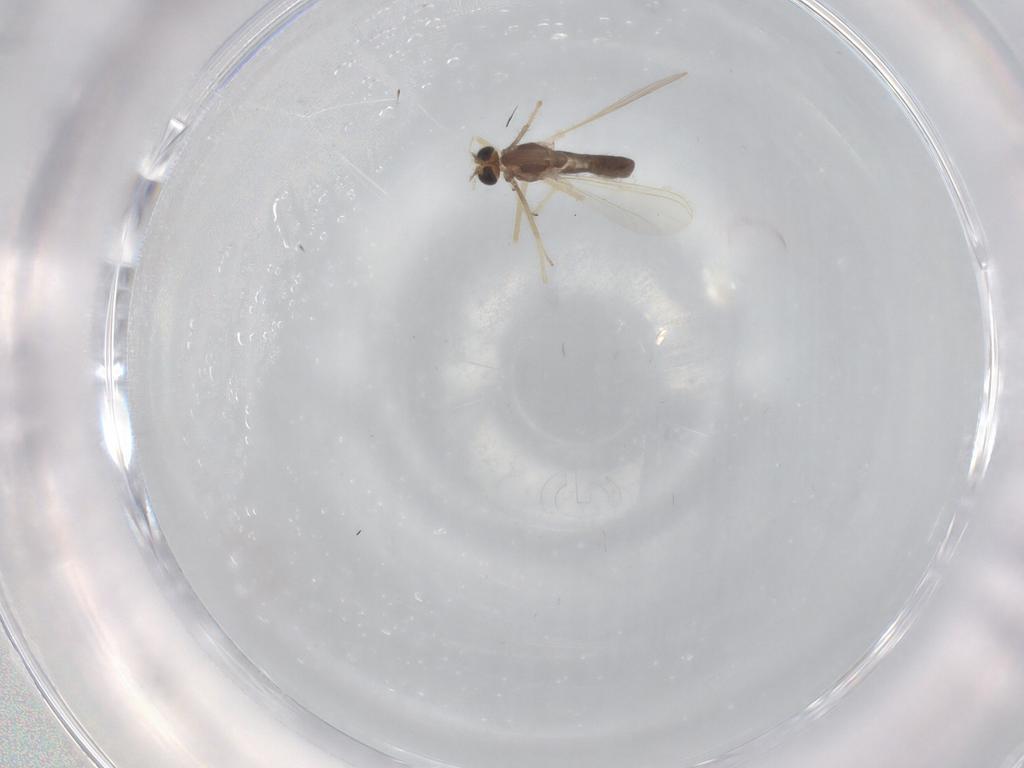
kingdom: Animalia
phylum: Arthropoda
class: Insecta
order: Diptera
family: Chironomidae
